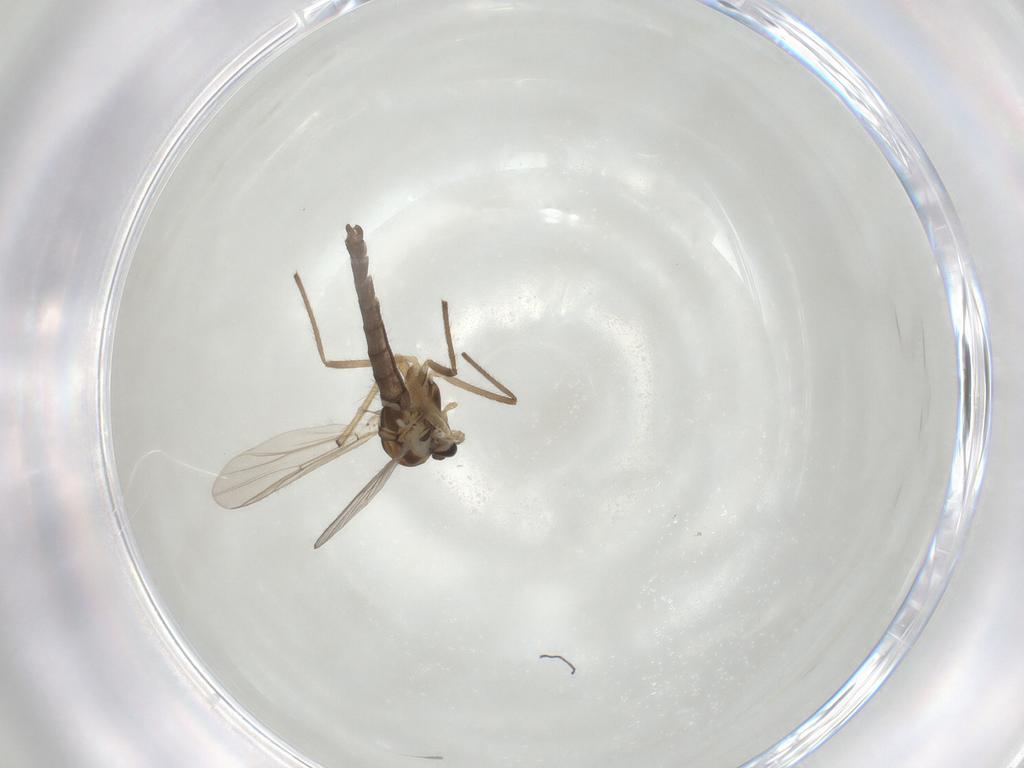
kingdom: Animalia
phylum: Arthropoda
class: Insecta
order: Diptera
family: Chironomidae
